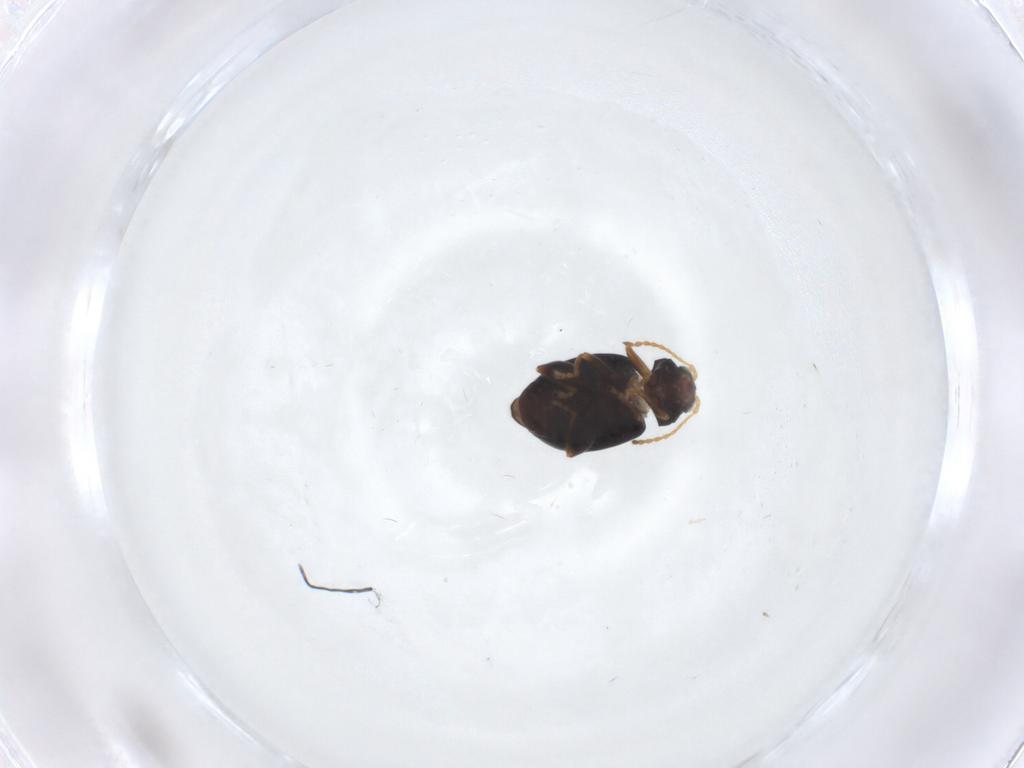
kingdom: Animalia
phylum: Arthropoda
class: Insecta
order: Coleoptera
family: Chrysomelidae
